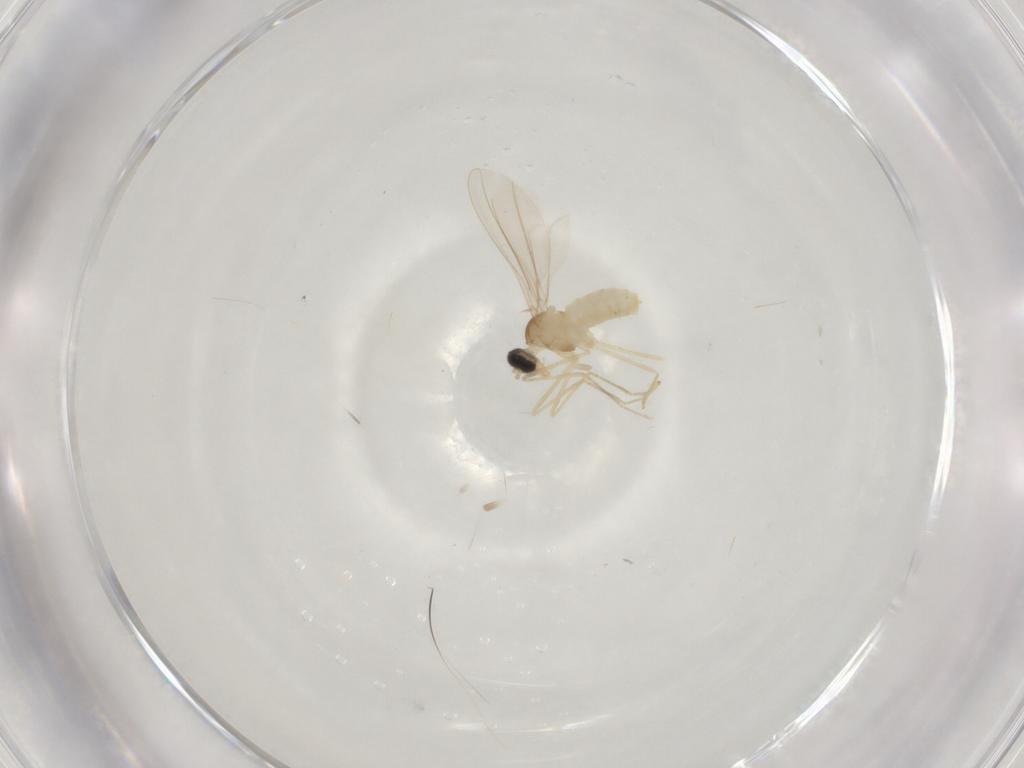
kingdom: Animalia
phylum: Arthropoda
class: Insecta
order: Diptera
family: Cecidomyiidae
